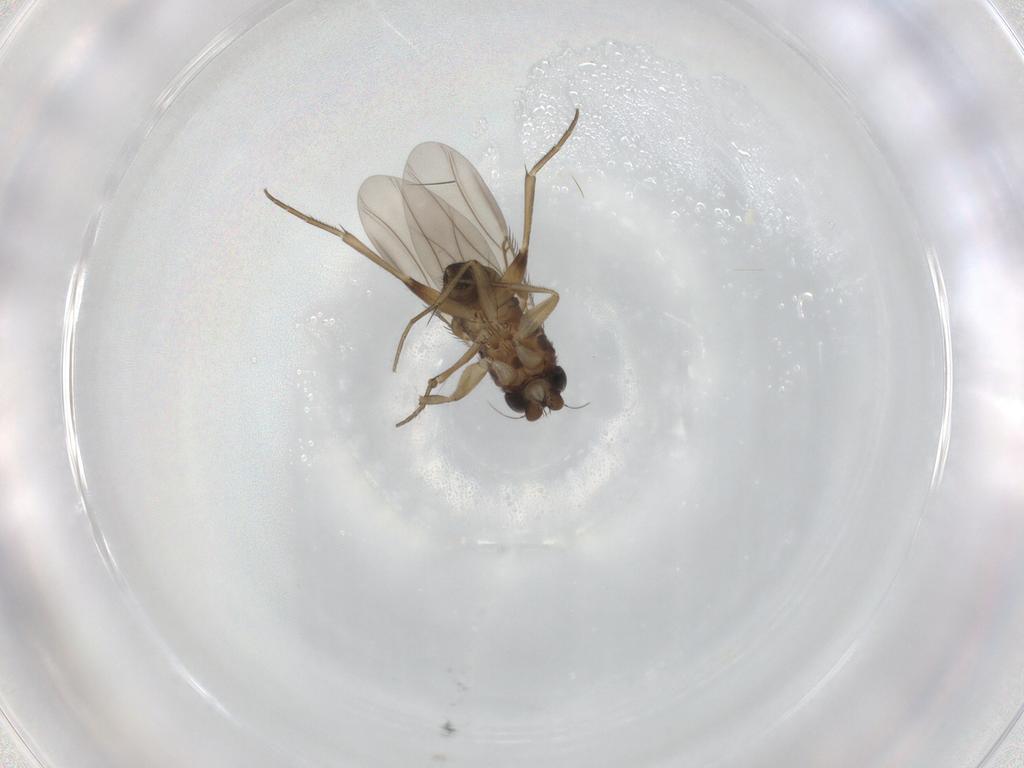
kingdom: Animalia
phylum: Arthropoda
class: Insecta
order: Diptera
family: Phoridae
